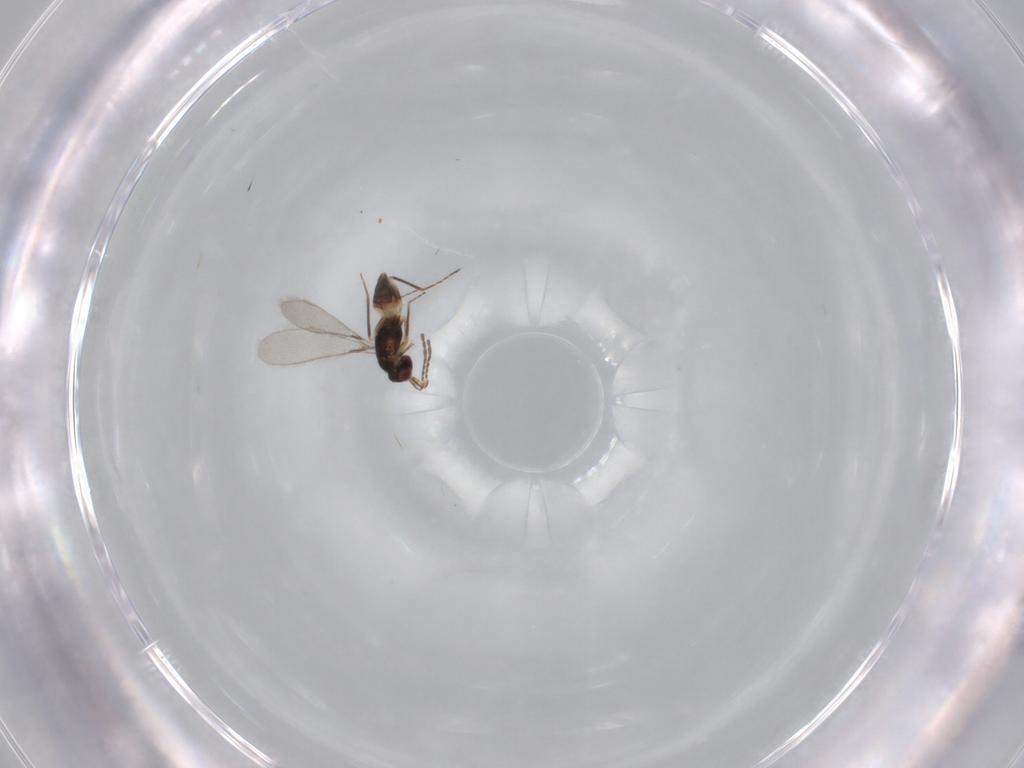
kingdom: Animalia
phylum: Arthropoda
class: Insecta
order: Hymenoptera
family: Mymaridae
